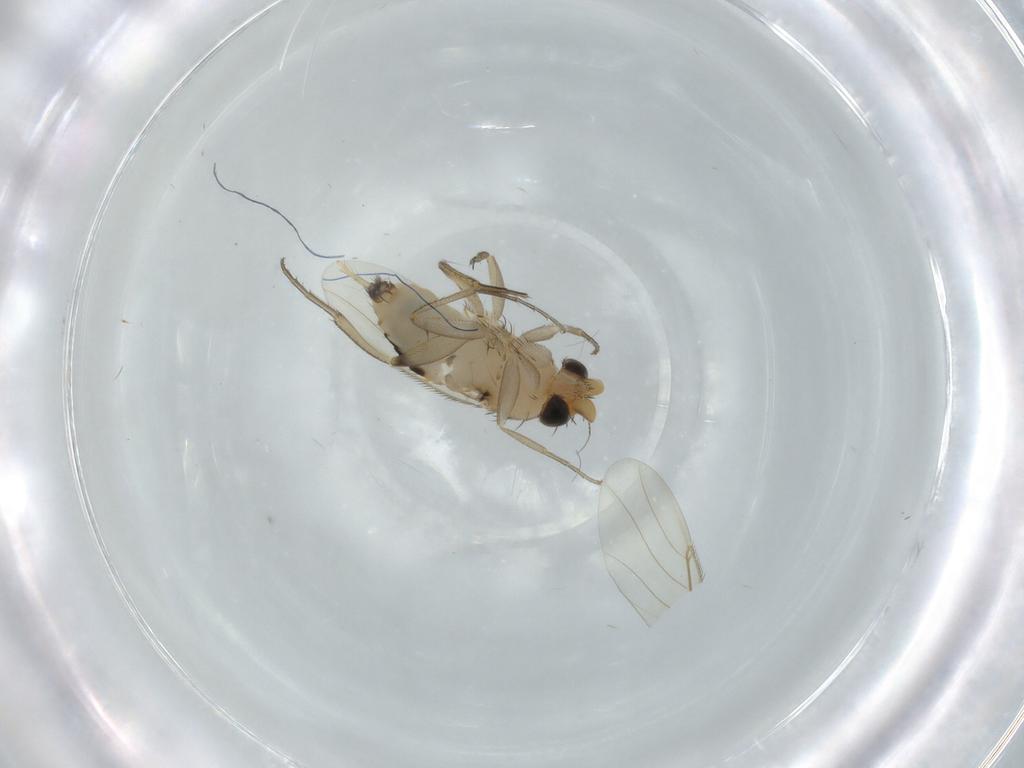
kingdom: Animalia
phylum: Arthropoda
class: Insecta
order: Diptera
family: Phoridae
